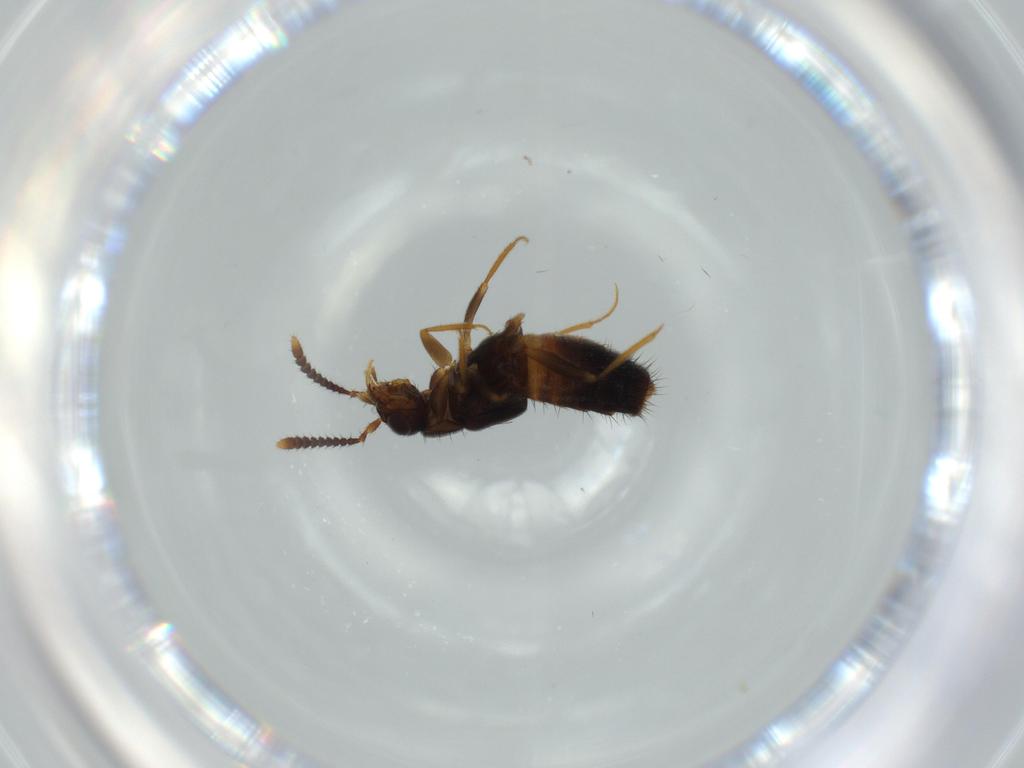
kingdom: Animalia
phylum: Arthropoda
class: Insecta
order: Coleoptera
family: Staphylinidae
